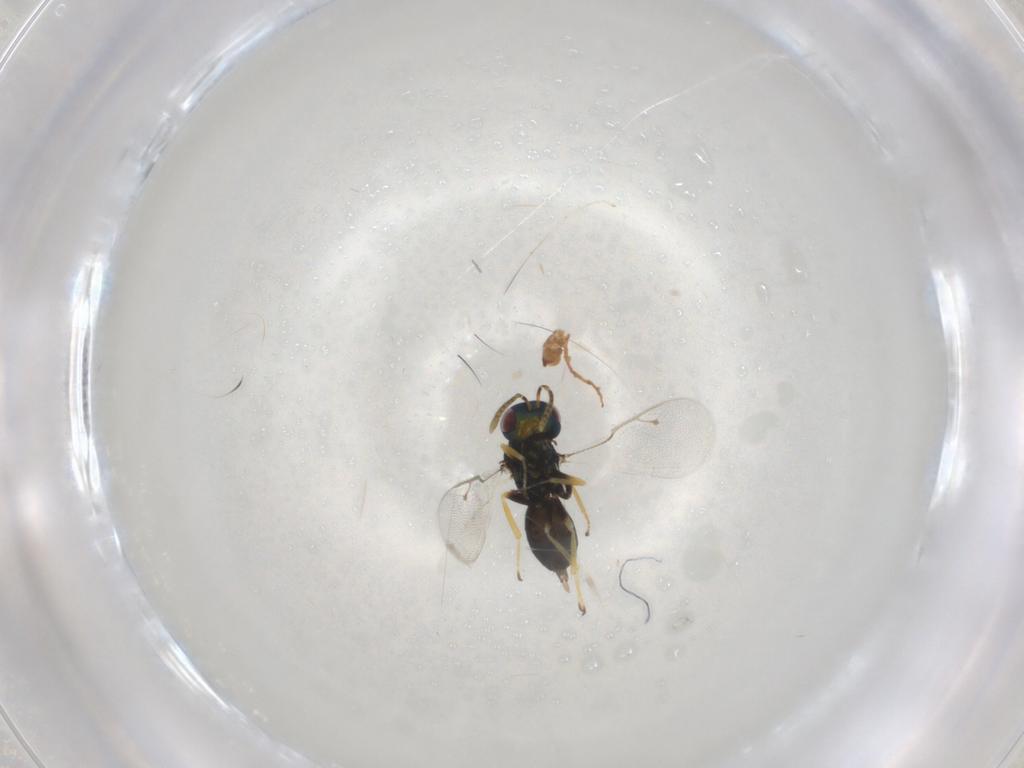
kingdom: Animalia
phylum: Arthropoda
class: Insecta
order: Hymenoptera
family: Pteromalidae
